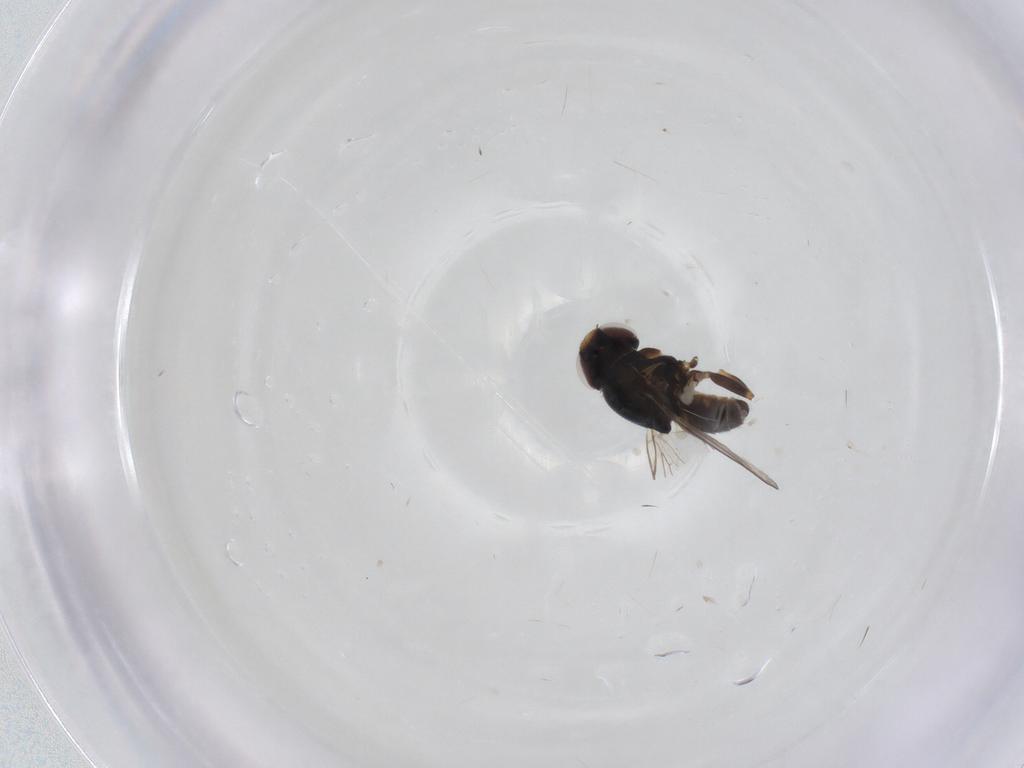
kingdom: Animalia
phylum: Arthropoda
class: Insecta
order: Diptera
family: Chloropidae
